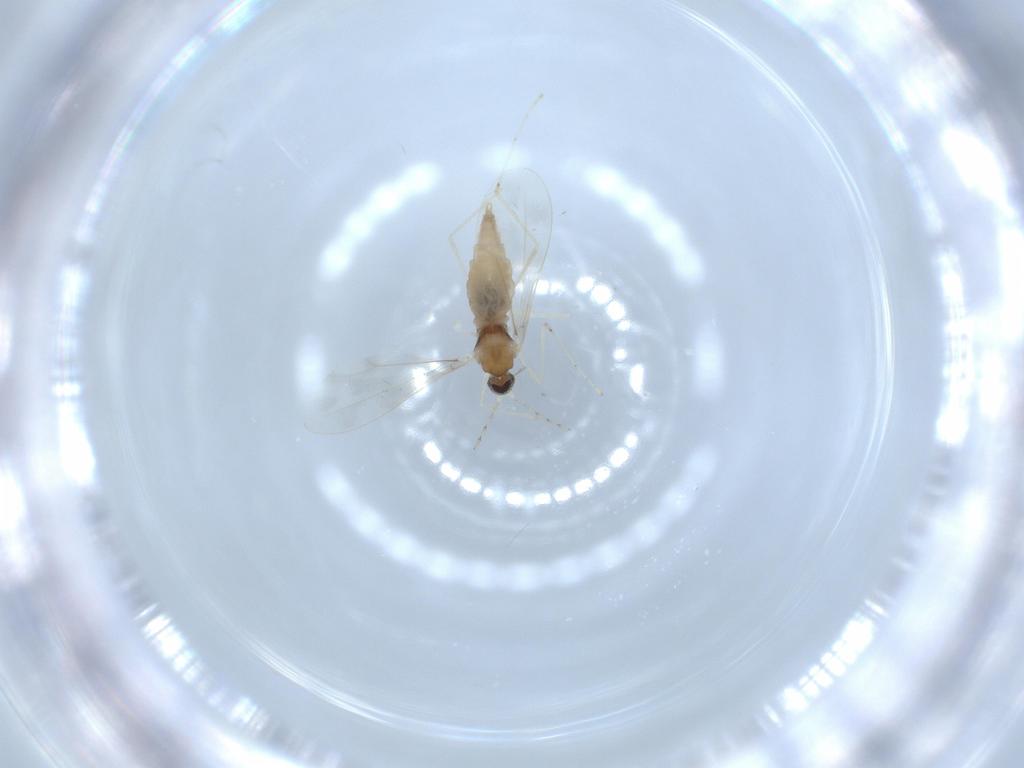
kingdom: Animalia
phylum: Arthropoda
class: Insecta
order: Diptera
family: Cecidomyiidae
